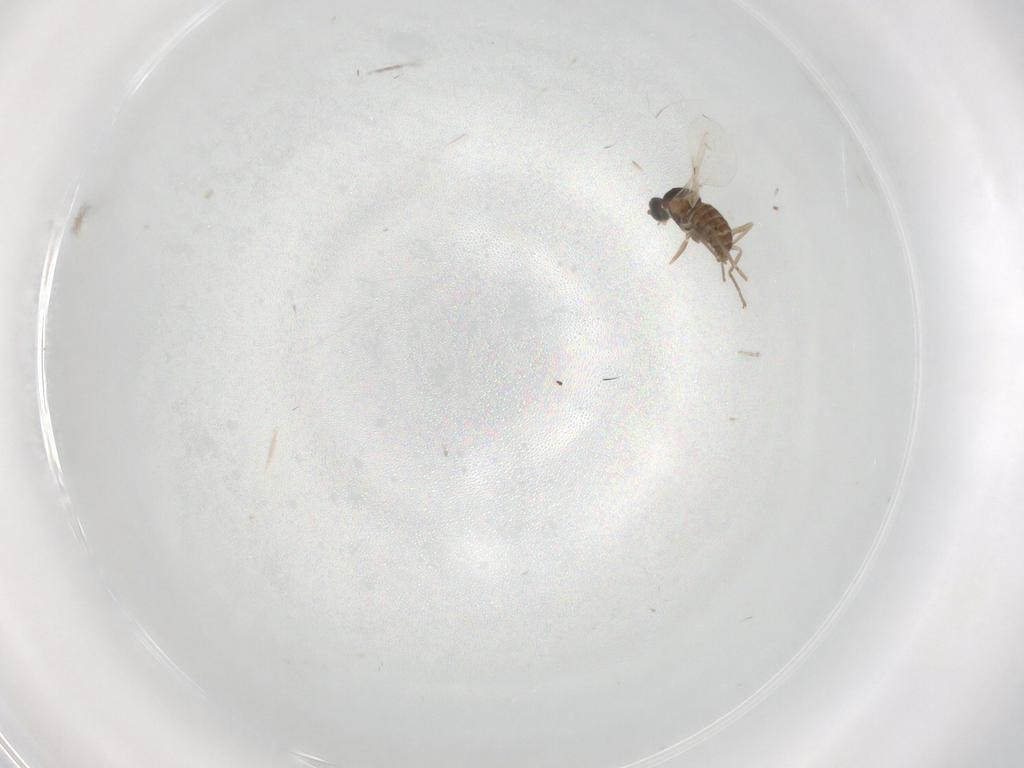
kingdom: Animalia
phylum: Arthropoda
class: Insecta
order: Diptera
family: Cecidomyiidae
